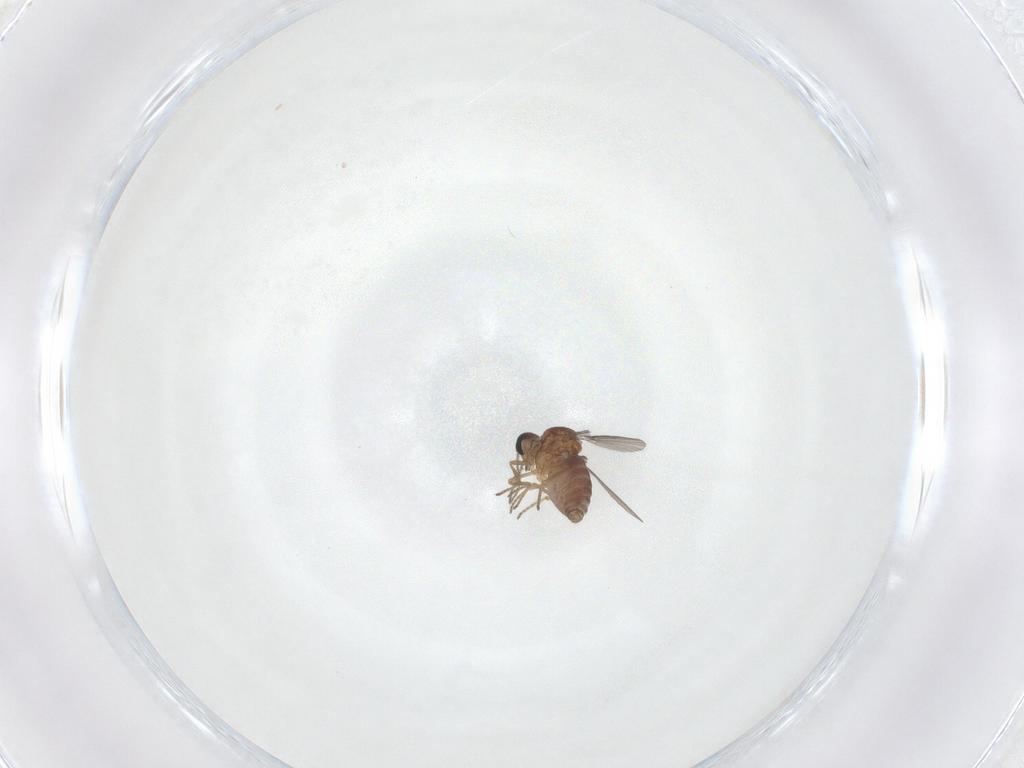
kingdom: Animalia
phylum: Arthropoda
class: Insecta
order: Diptera
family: Ceratopogonidae
